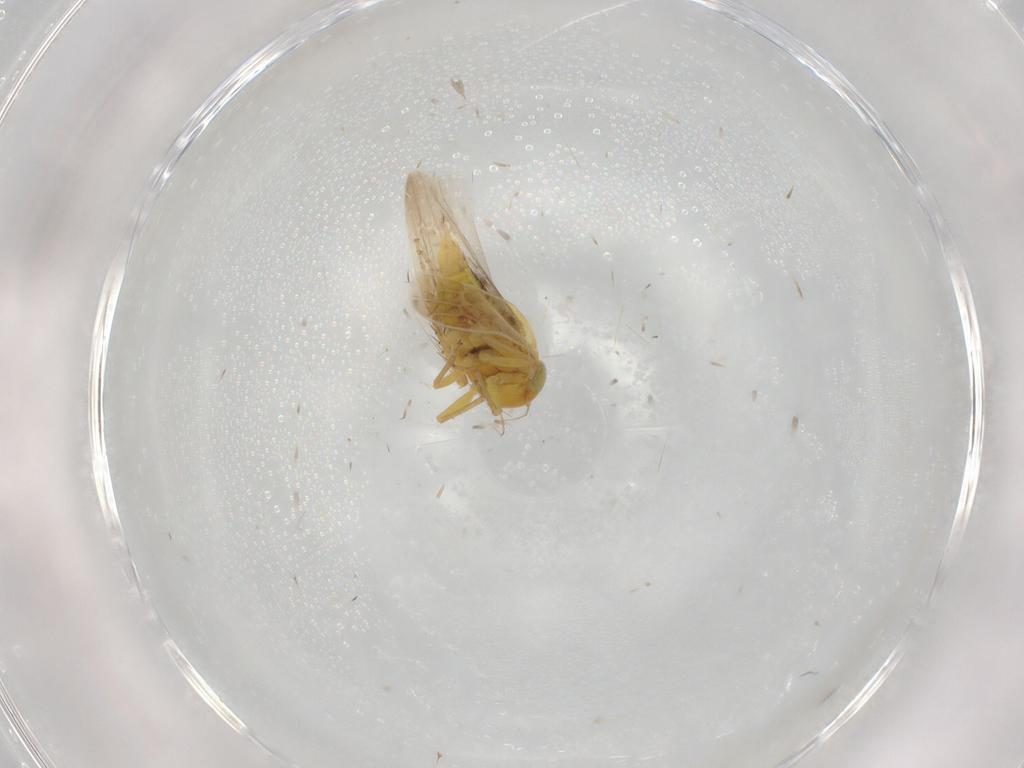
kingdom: Animalia
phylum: Arthropoda
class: Insecta
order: Hemiptera
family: Cicadellidae
